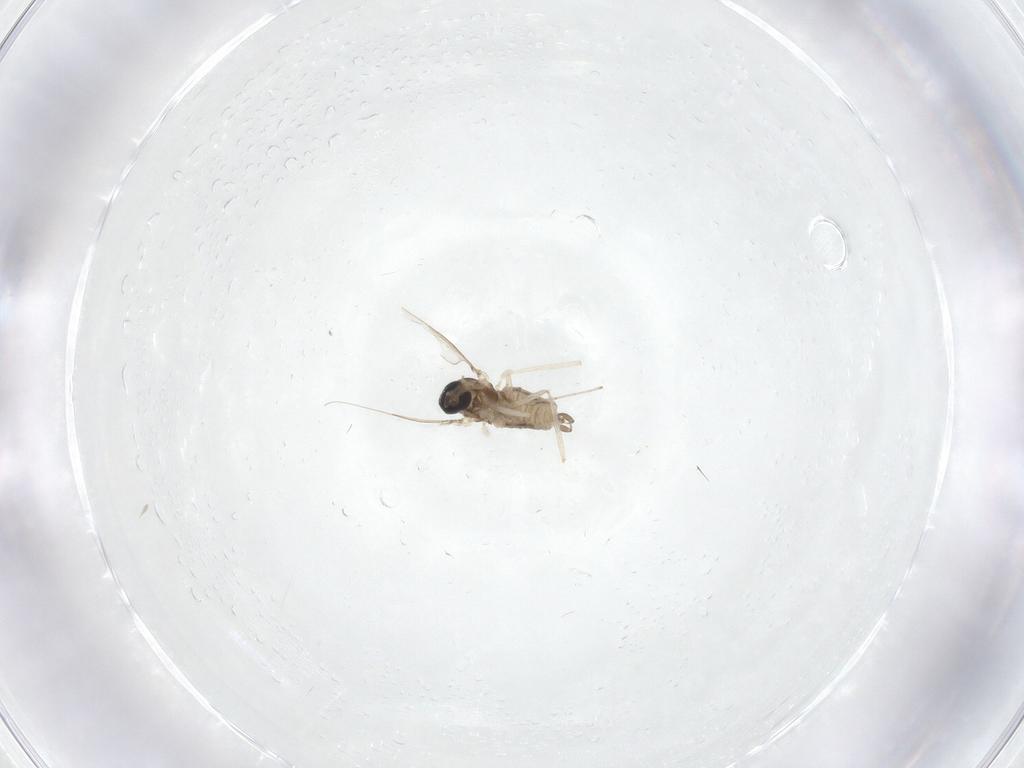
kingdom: Animalia
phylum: Arthropoda
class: Insecta
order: Diptera
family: Cecidomyiidae
